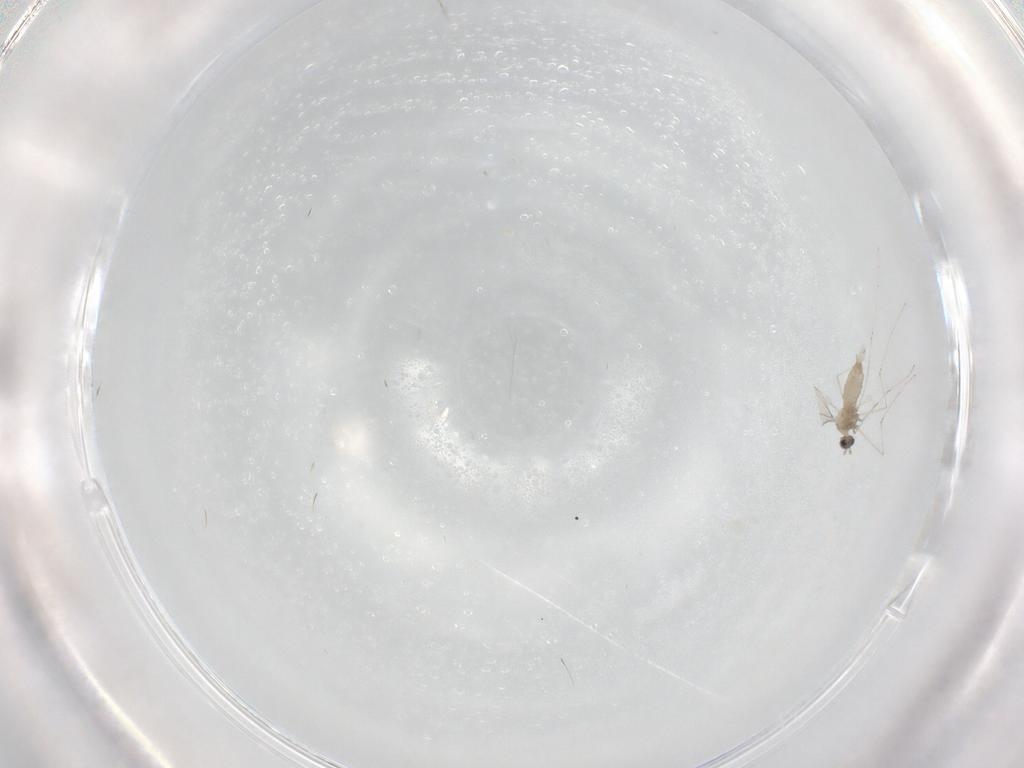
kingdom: Animalia
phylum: Arthropoda
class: Insecta
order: Diptera
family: Cecidomyiidae
